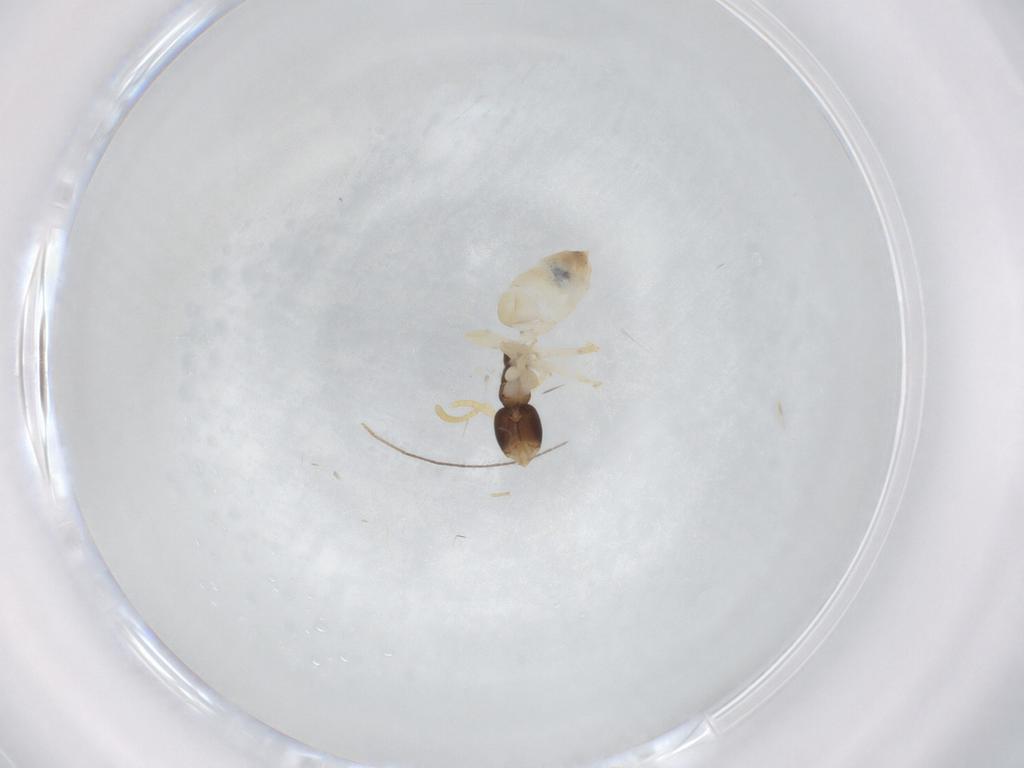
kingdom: Animalia
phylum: Arthropoda
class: Insecta
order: Hymenoptera
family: Formicidae
